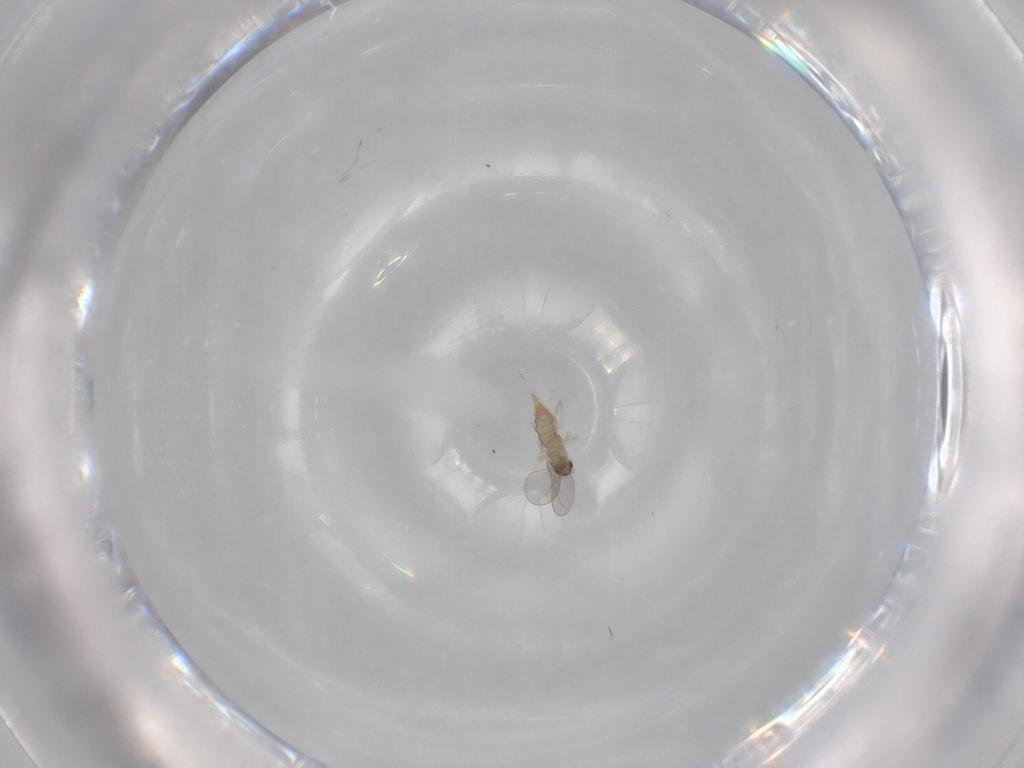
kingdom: Animalia
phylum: Arthropoda
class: Insecta
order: Diptera
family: Cecidomyiidae
